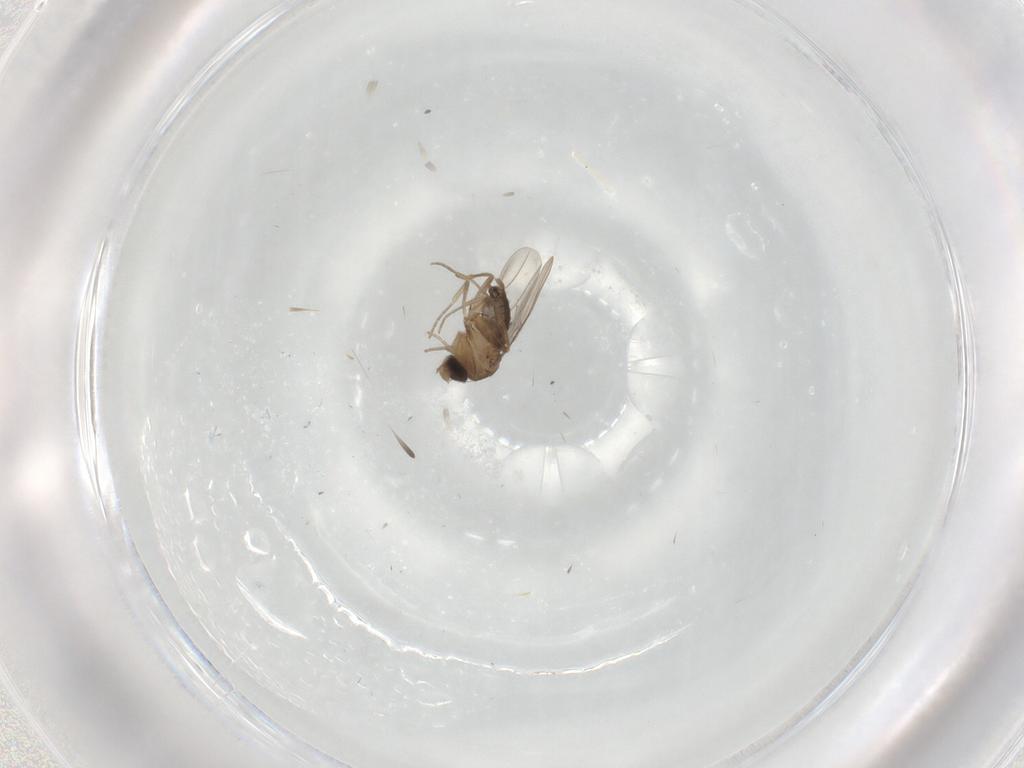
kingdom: Animalia
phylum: Arthropoda
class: Insecta
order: Diptera
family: Phoridae
